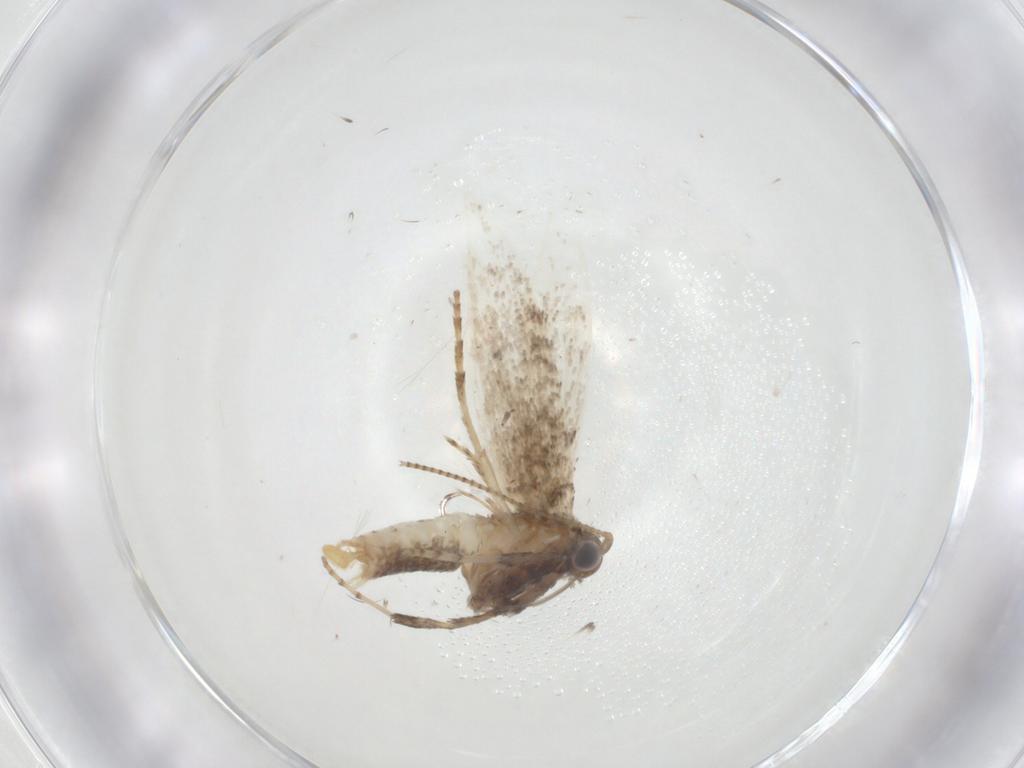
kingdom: Animalia
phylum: Arthropoda
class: Insecta
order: Lepidoptera
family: Gracillariidae
